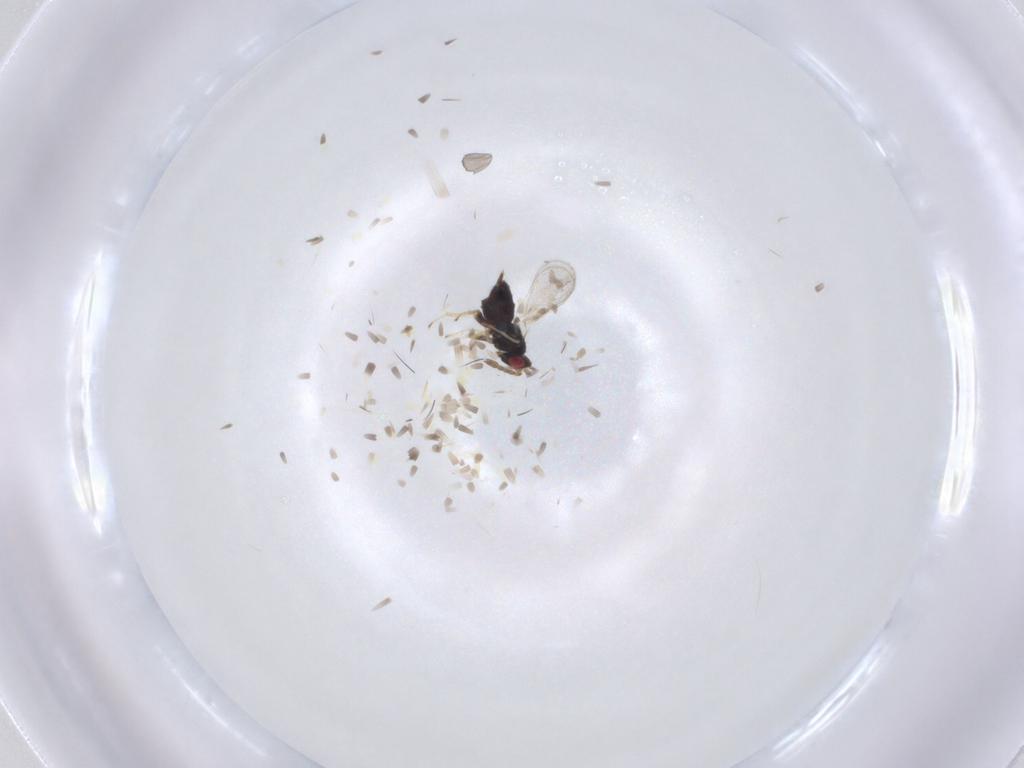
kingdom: Animalia
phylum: Arthropoda
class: Insecta
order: Hymenoptera
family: Eulophidae
